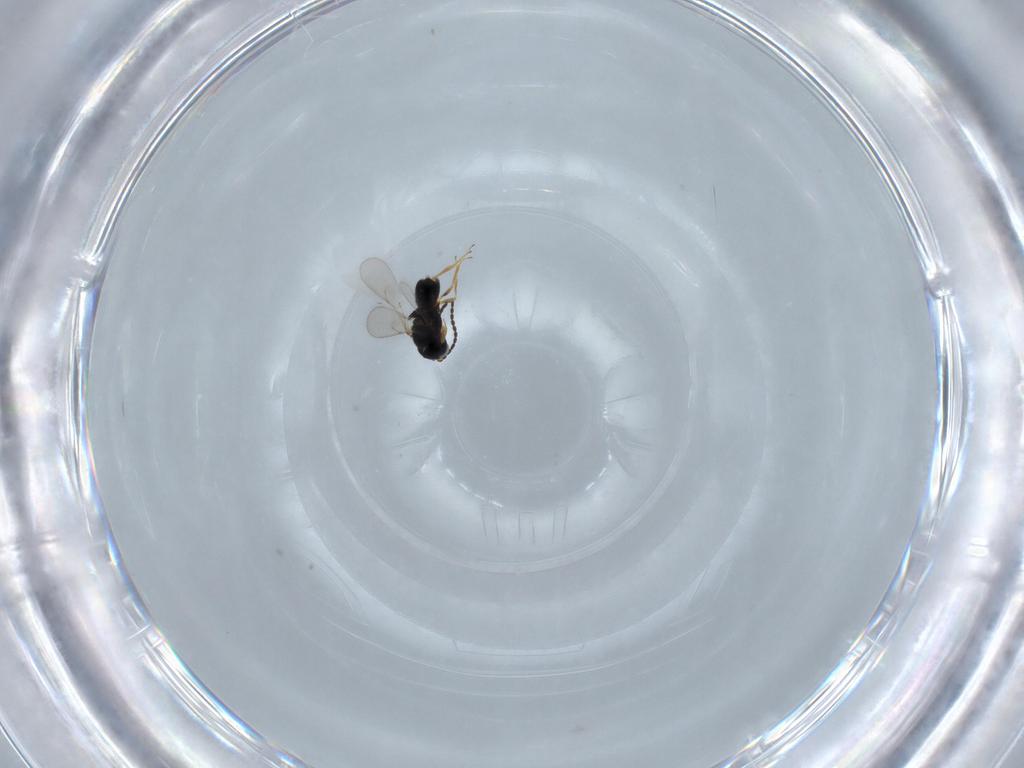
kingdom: Animalia
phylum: Arthropoda
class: Insecta
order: Hymenoptera
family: Scelionidae
